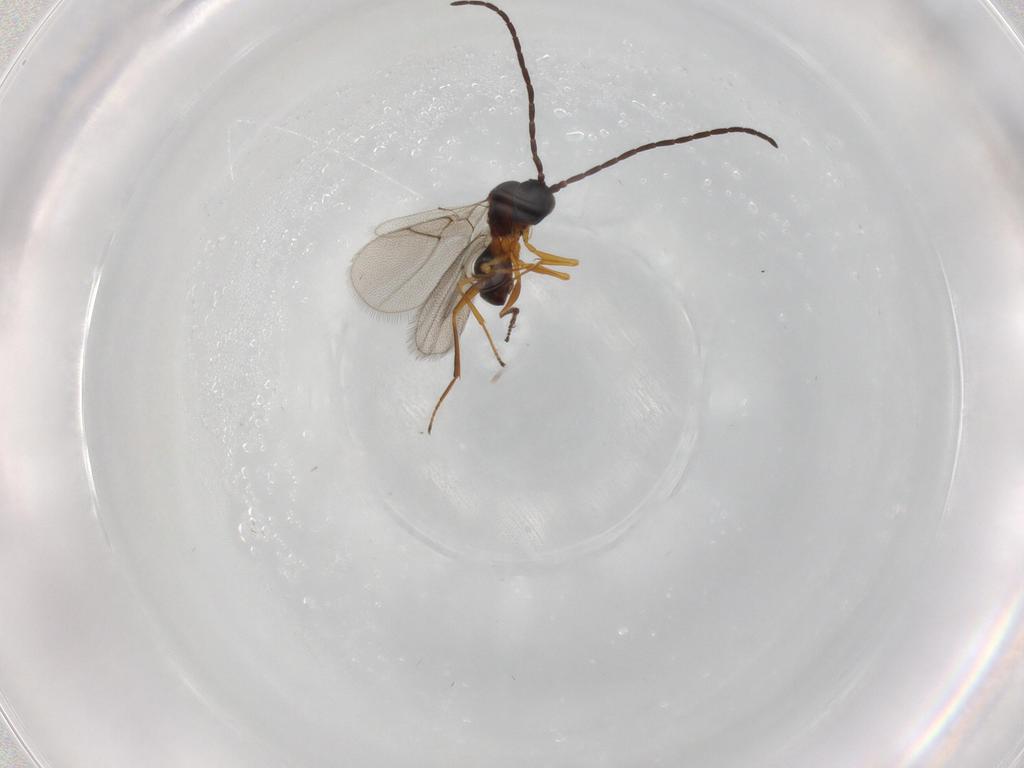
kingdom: Animalia
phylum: Arthropoda
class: Insecta
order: Hymenoptera
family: Figitidae
